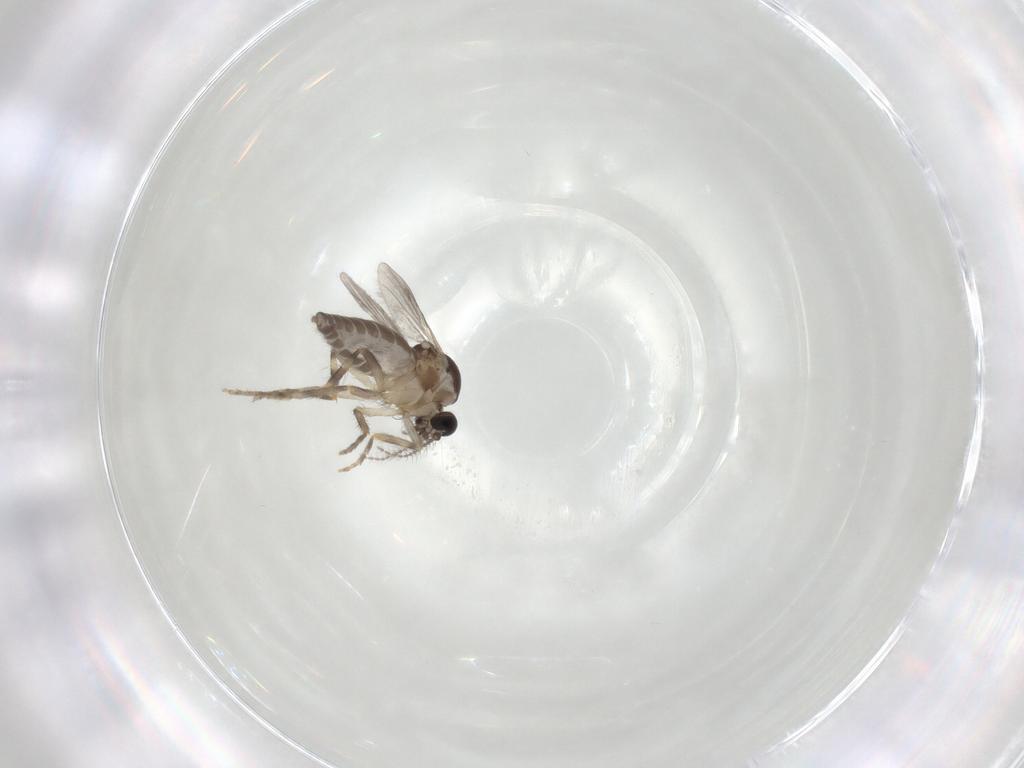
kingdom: Animalia
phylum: Arthropoda
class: Insecta
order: Diptera
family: Ceratopogonidae
